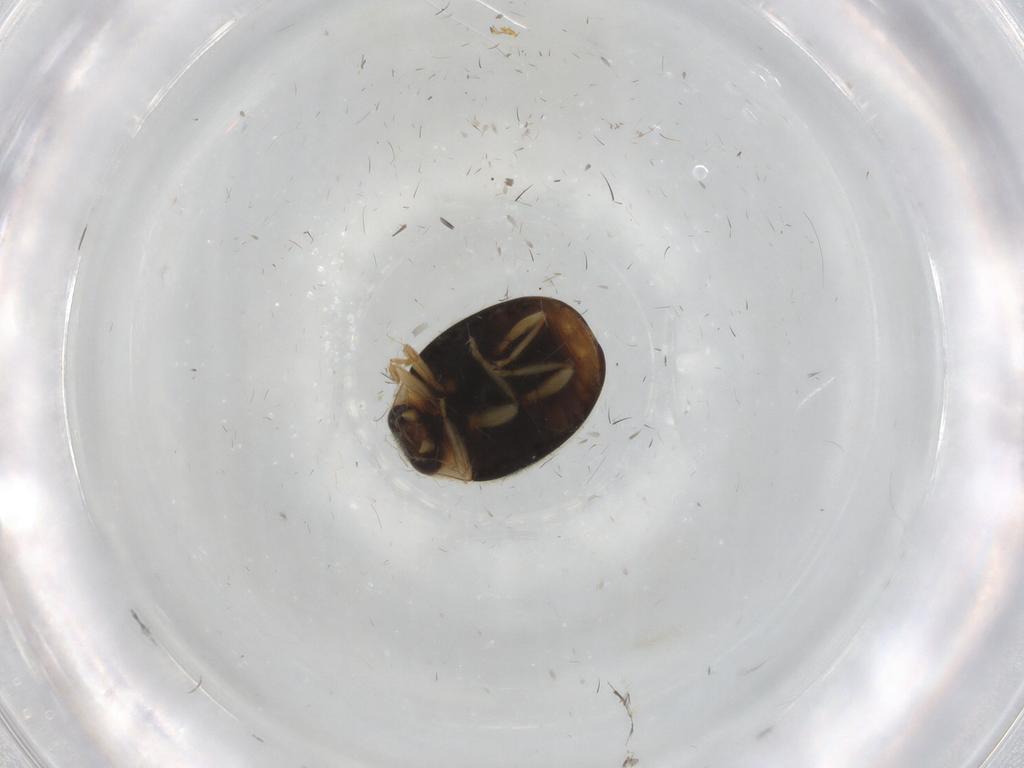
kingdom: Animalia
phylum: Arthropoda
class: Insecta
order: Coleoptera
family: Coccinellidae
